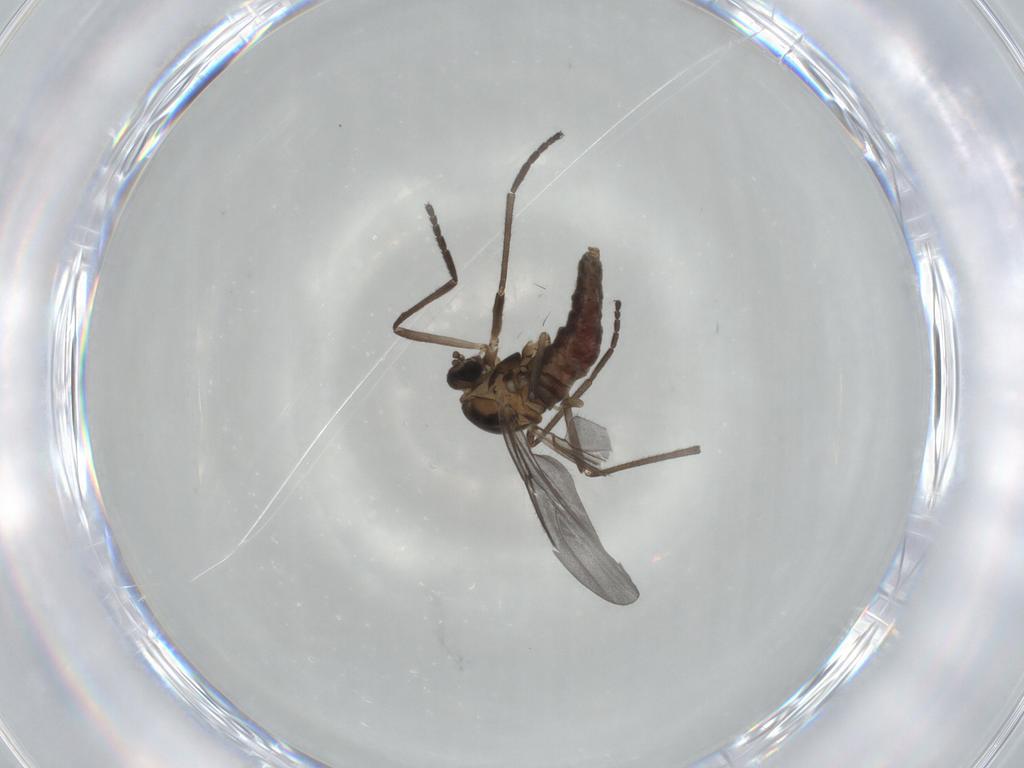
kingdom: Animalia
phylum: Arthropoda
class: Insecta
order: Diptera
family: Cecidomyiidae
